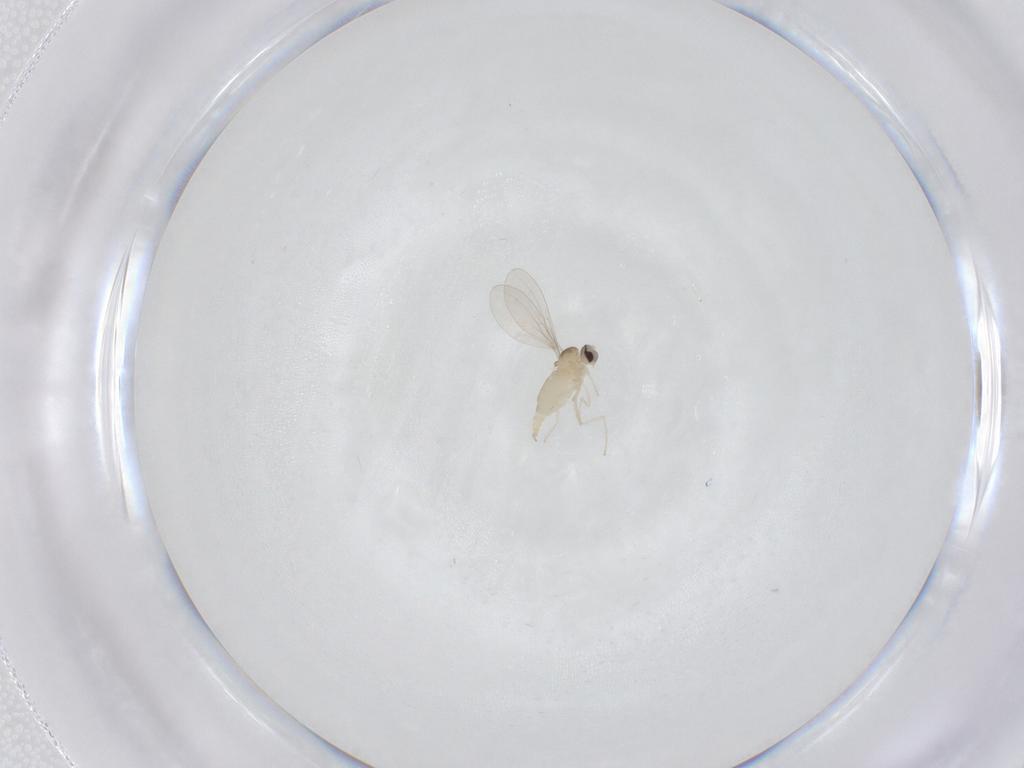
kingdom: Animalia
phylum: Arthropoda
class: Insecta
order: Diptera
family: Cecidomyiidae
